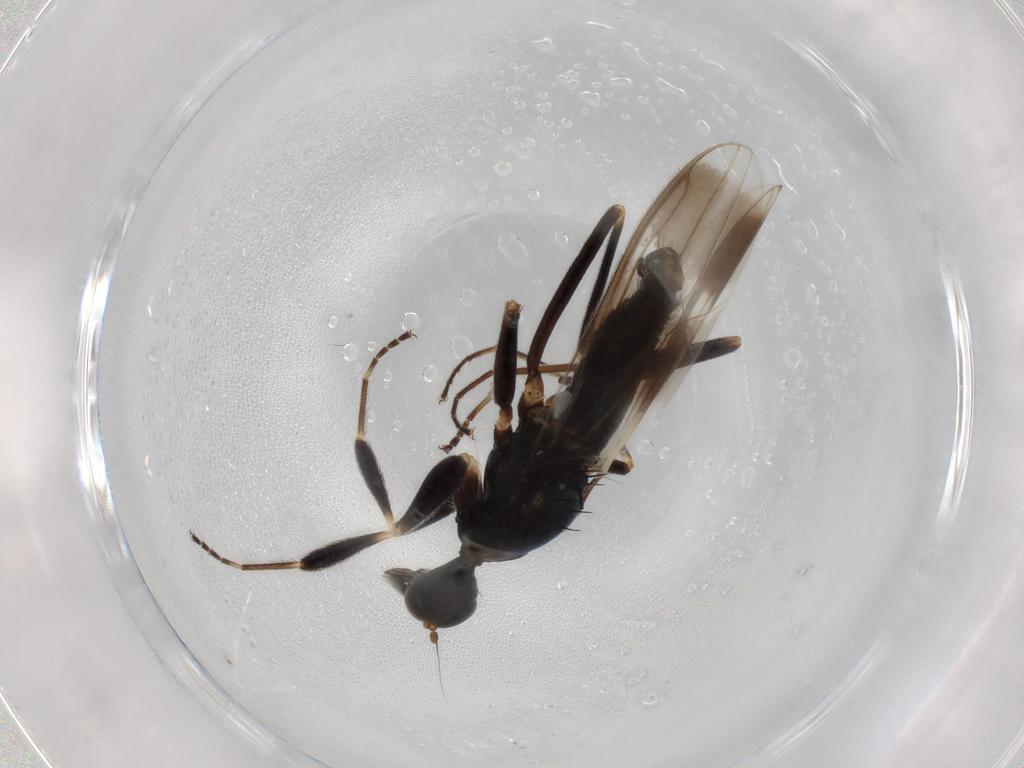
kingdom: Animalia
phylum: Arthropoda
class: Insecta
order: Diptera
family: Hybotidae
